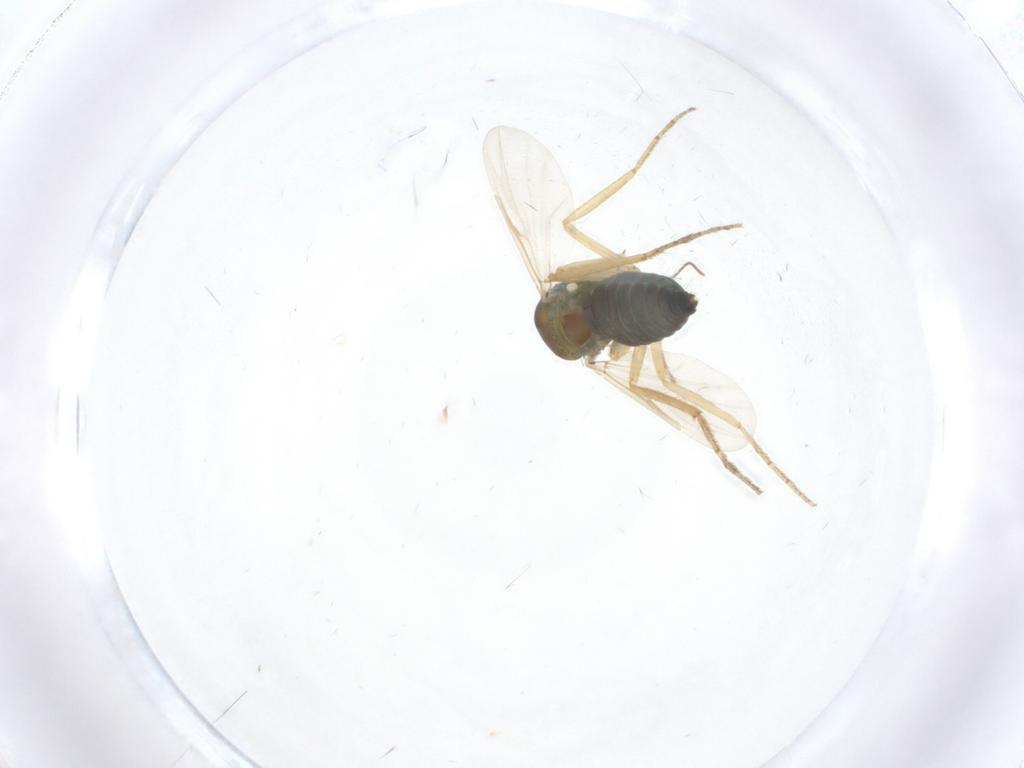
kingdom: Animalia
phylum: Arthropoda
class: Insecta
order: Diptera
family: Ceratopogonidae
